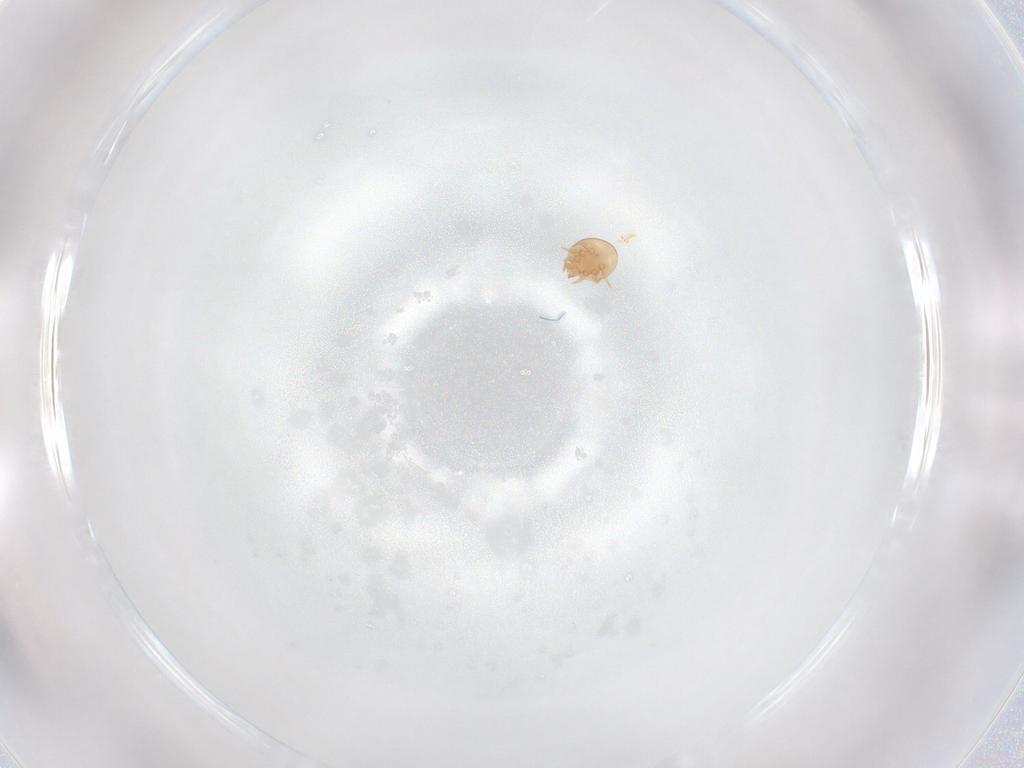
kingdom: Animalia
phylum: Arthropoda
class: Arachnida
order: Mesostigmata
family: Trematuridae
